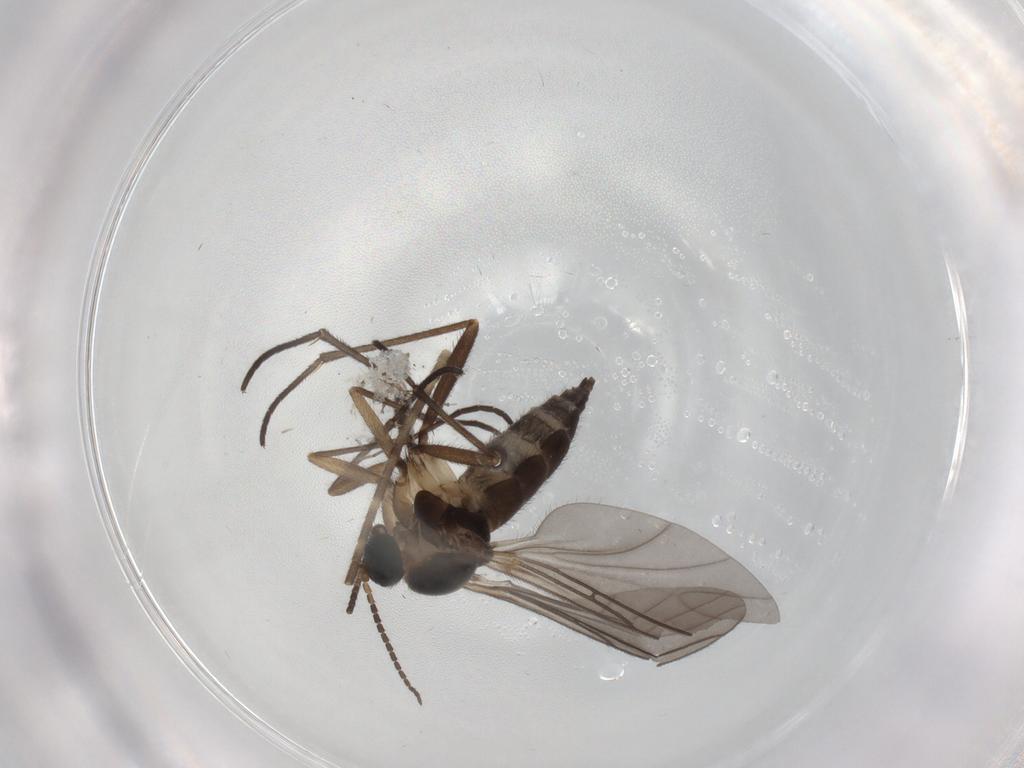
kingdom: Animalia
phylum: Arthropoda
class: Insecta
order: Diptera
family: Sciaridae
